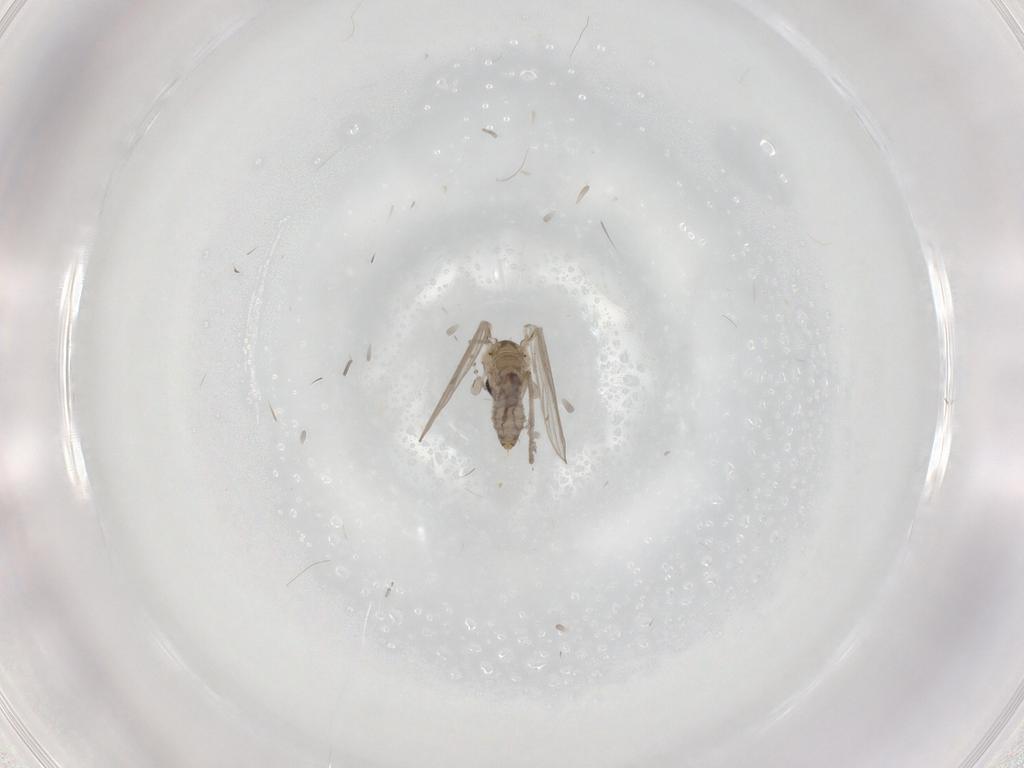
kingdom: Animalia
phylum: Arthropoda
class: Insecta
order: Diptera
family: Psychodidae
